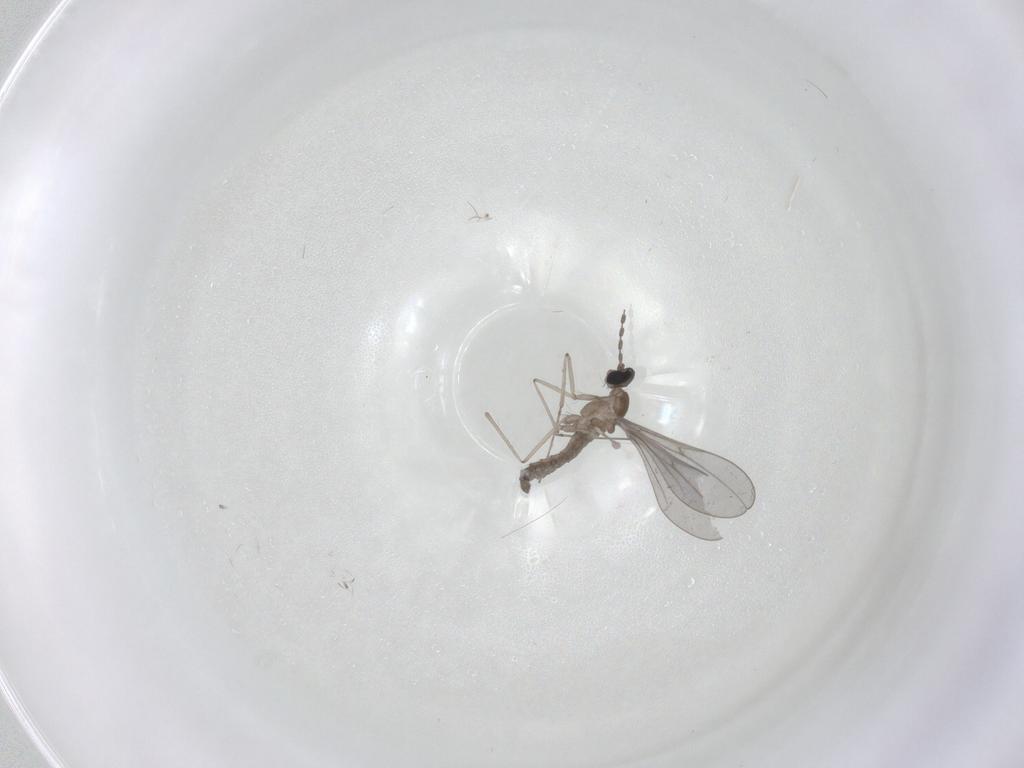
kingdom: Animalia
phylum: Arthropoda
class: Insecta
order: Diptera
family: Cecidomyiidae
